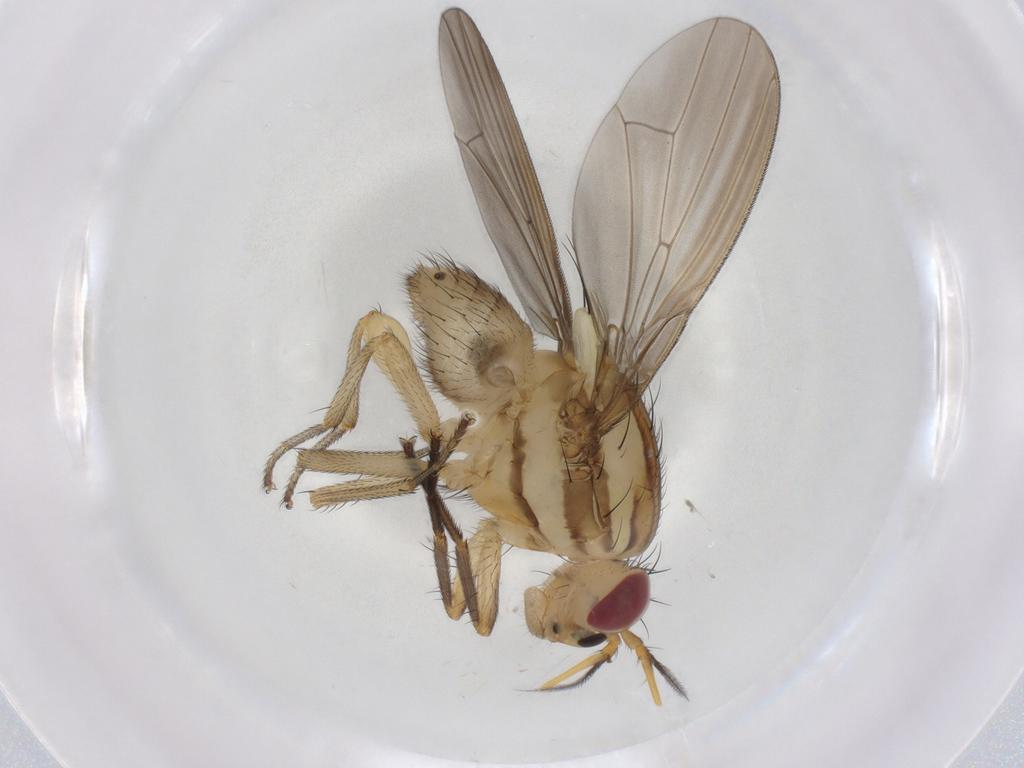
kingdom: Animalia
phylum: Arthropoda
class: Insecta
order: Diptera
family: Lauxaniidae
